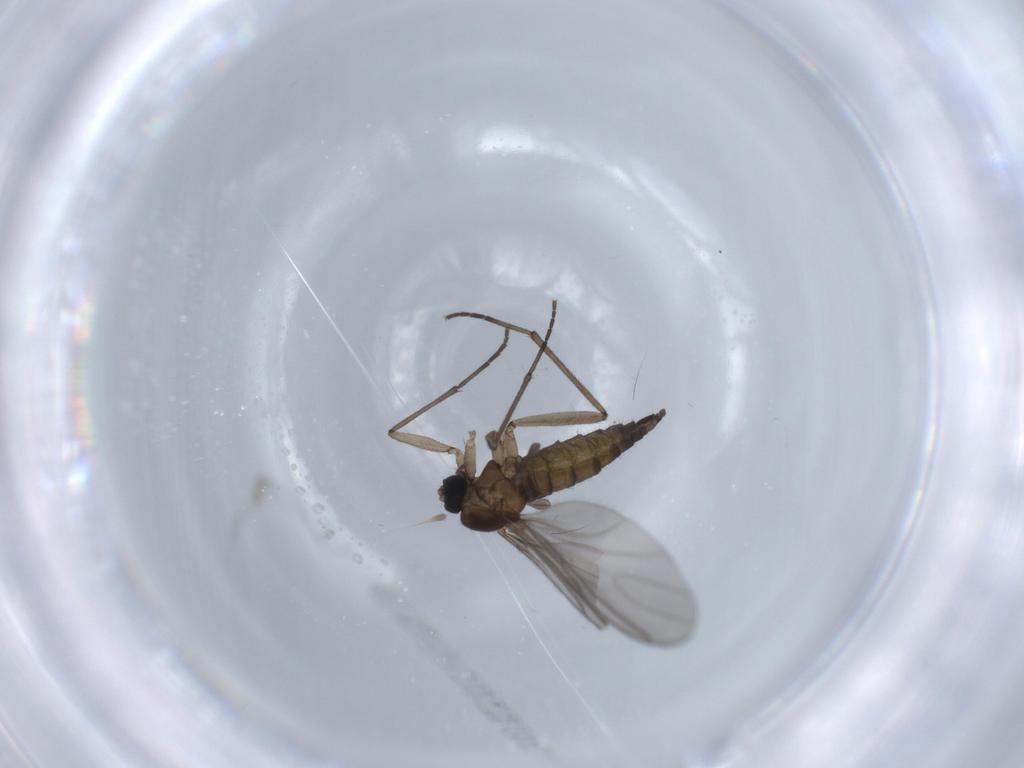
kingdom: Animalia
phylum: Arthropoda
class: Insecta
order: Diptera
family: Sciaridae
